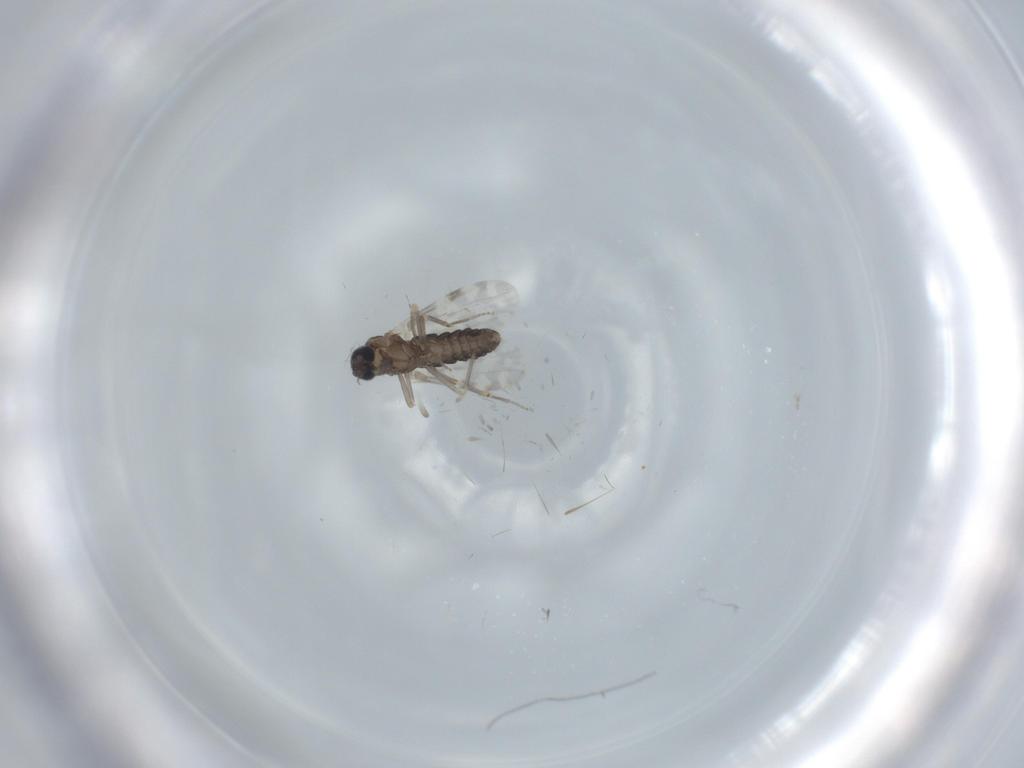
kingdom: Animalia
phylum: Arthropoda
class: Insecta
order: Diptera
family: Ceratopogonidae
